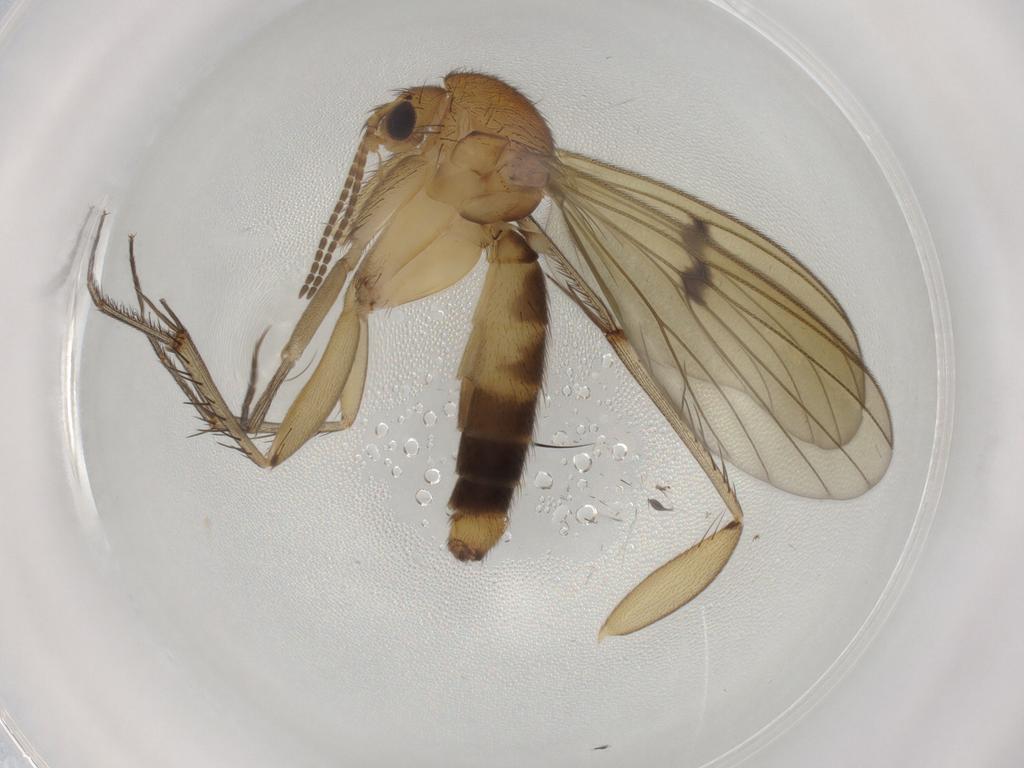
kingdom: Animalia
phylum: Arthropoda
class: Insecta
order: Diptera
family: Mycetophilidae
